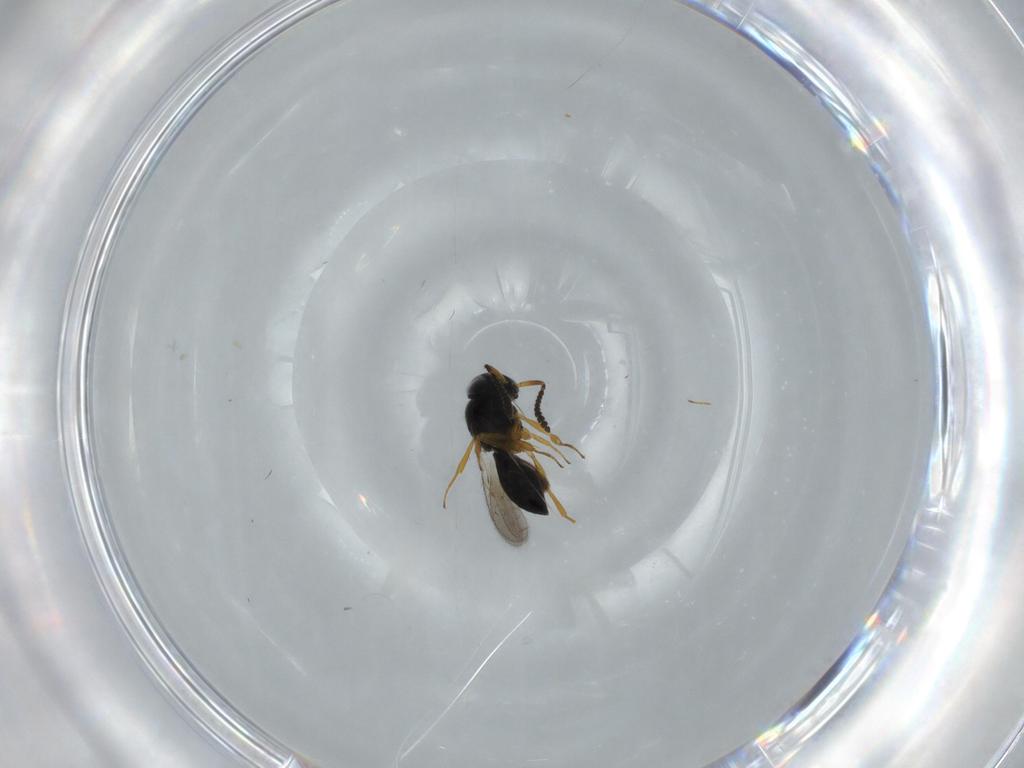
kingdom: Animalia
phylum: Arthropoda
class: Insecta
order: Hymenoptera
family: Scelionidae
